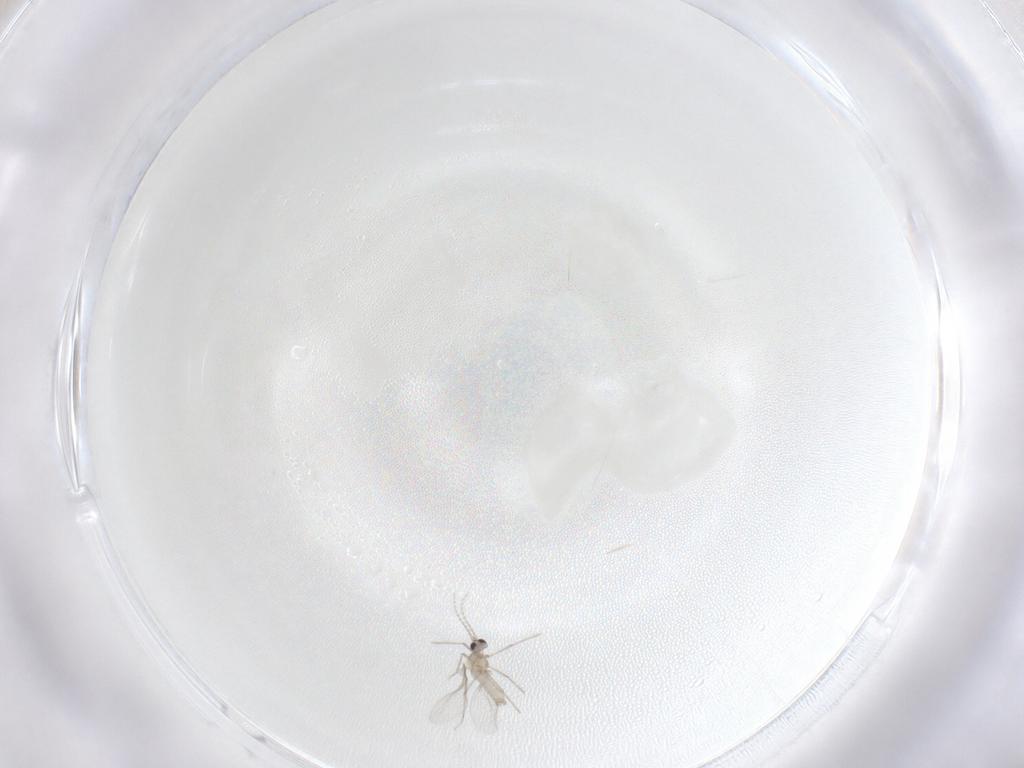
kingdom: Animalia
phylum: Arthropoda
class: Insecta
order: Diptera
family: Cecidomyiidae
